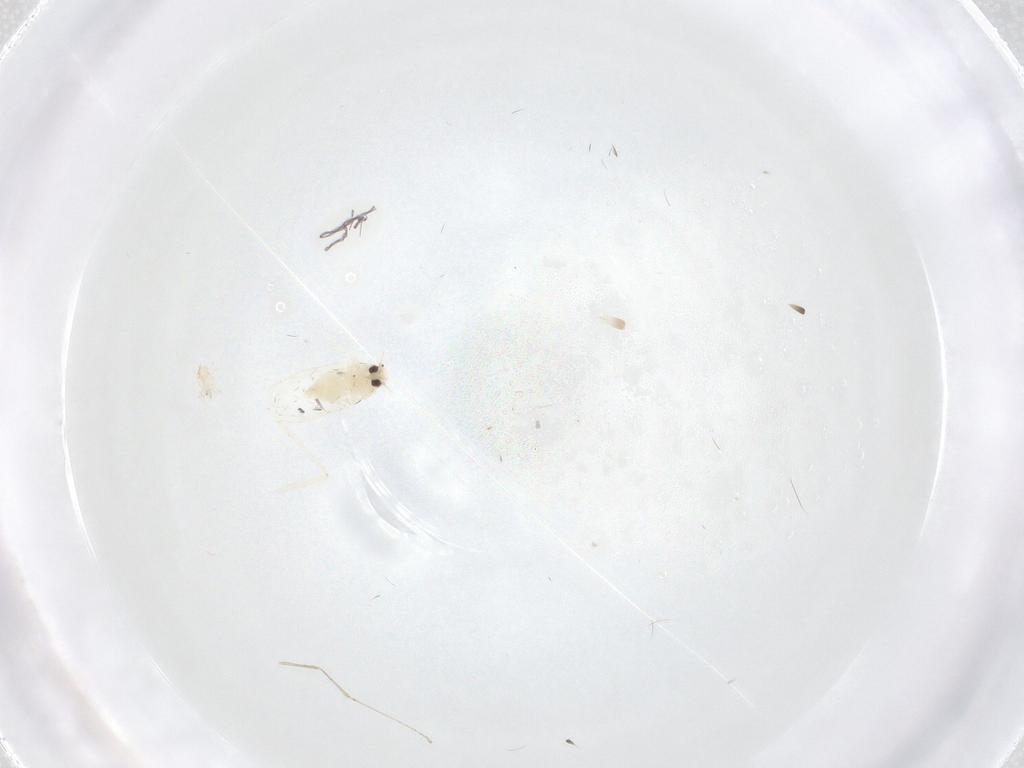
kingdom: Animalia
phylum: Arthropoda
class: Insecta
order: Hemiptera
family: Aleyrodidae
